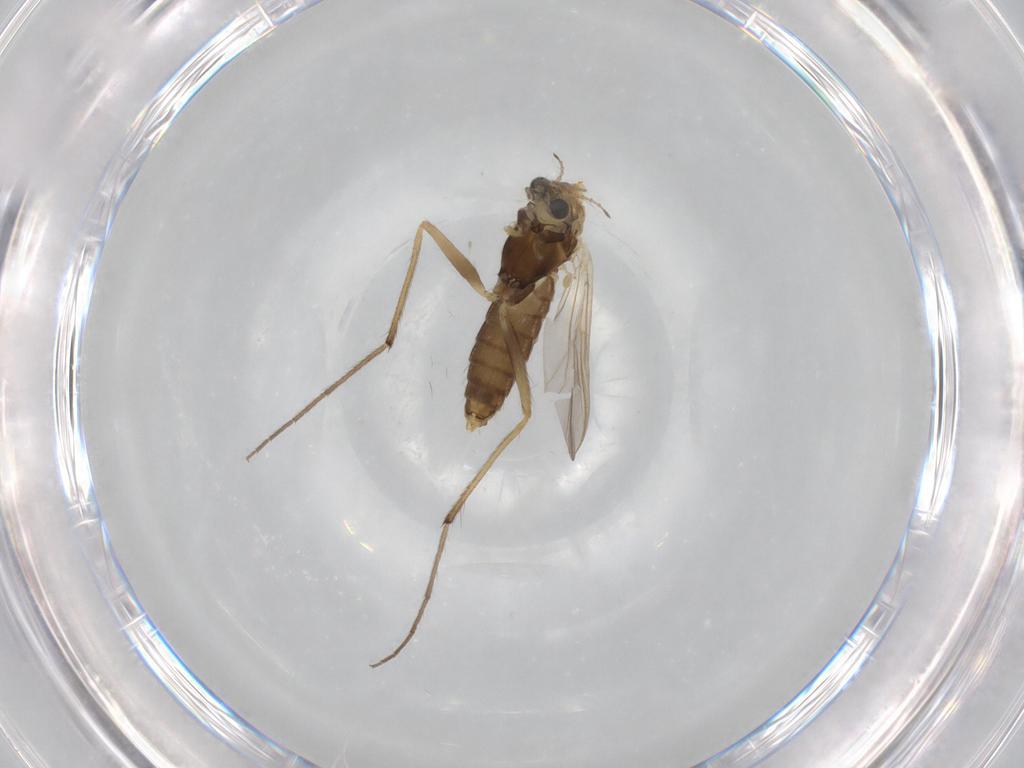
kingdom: Animalia
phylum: Arthropoda
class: Insecta
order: Diptera
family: Chironomidae
